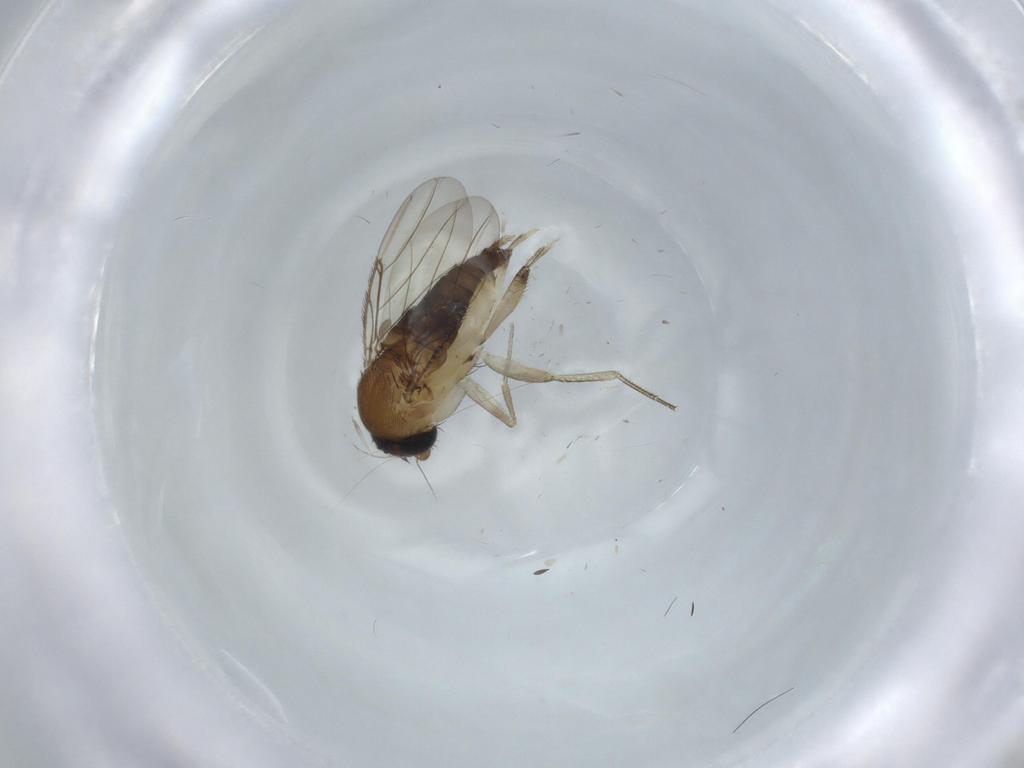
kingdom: Animalia
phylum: Arthropoda
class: Insecta
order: Diptera
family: Phoridae
